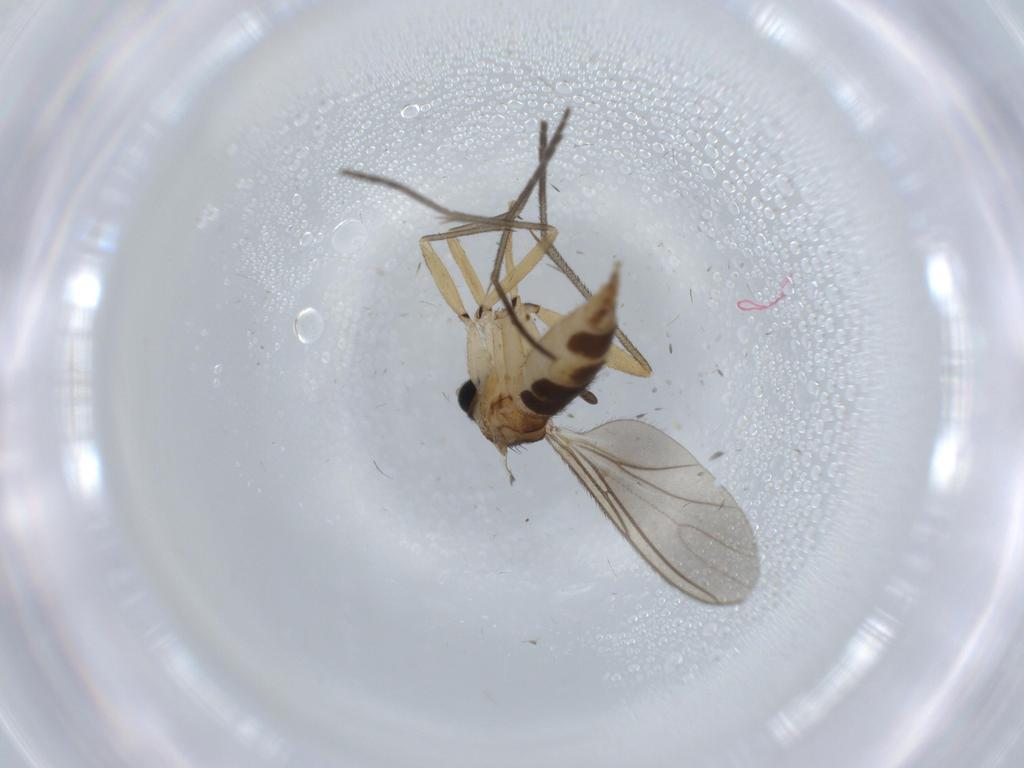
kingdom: Animalia
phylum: Arthropoda
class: Insecta
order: Diptera
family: Sciaridae
